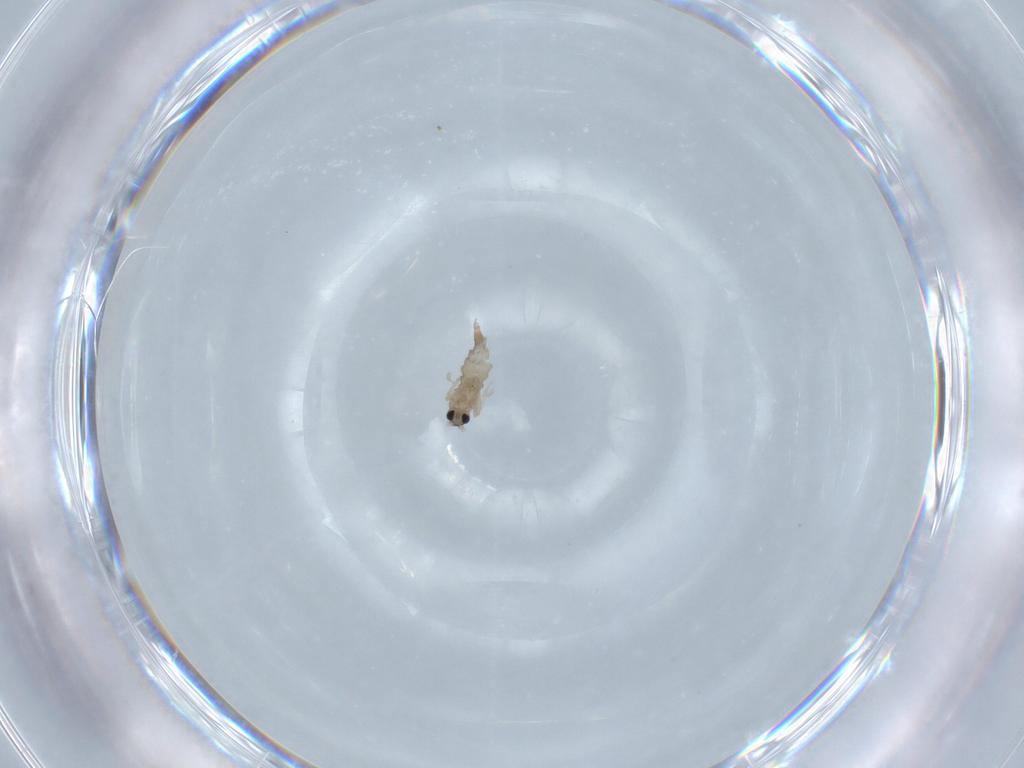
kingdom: Animalia
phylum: Arthropoda
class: Insecta
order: Diptera
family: Cecidomyiidae
